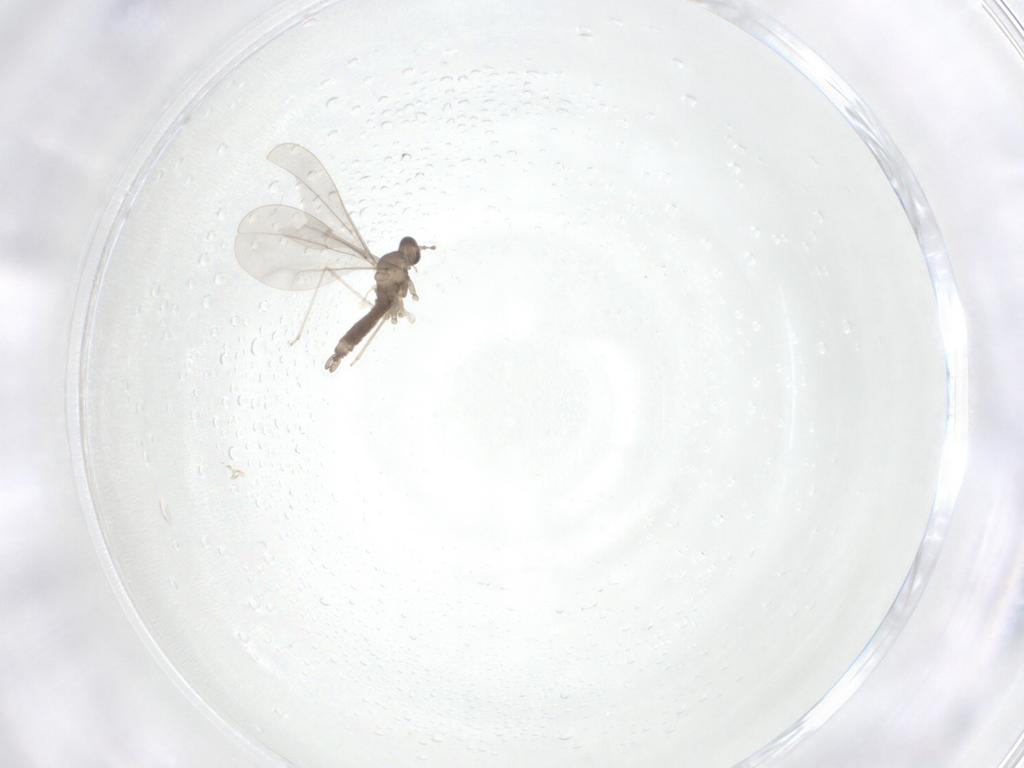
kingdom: Animalia
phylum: Arthropoda
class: Insecta
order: Diptera
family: Cecidomyiidae
